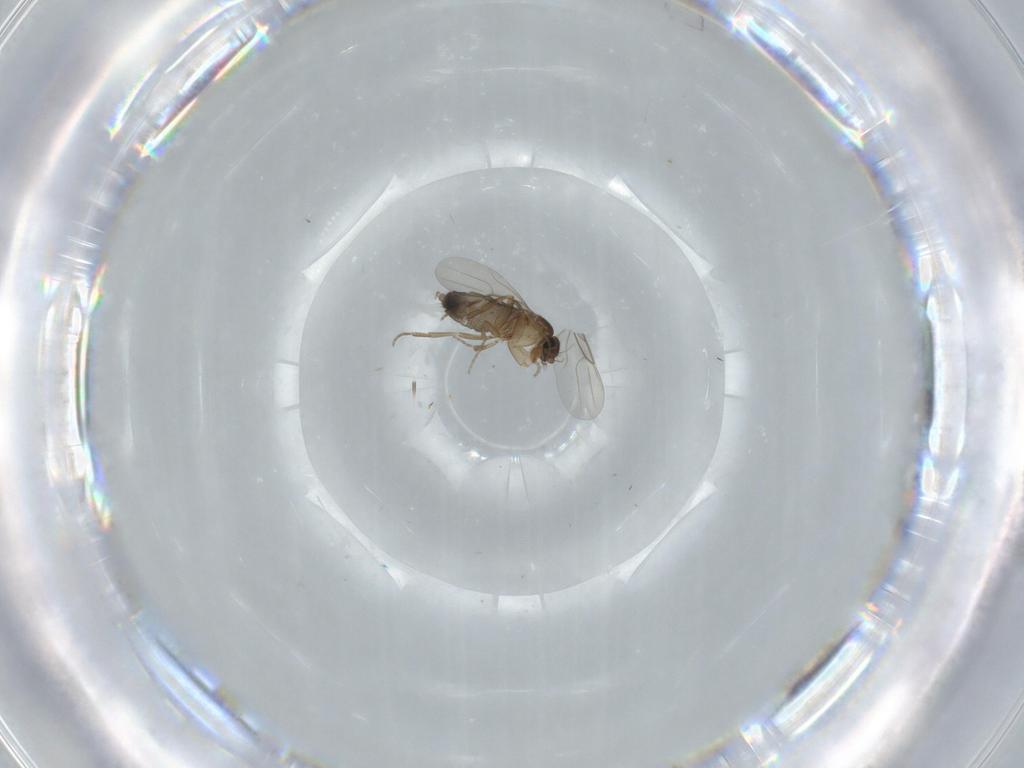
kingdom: Animalia
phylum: Arthropoda
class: Insecta
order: Diptera
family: Phoridae
